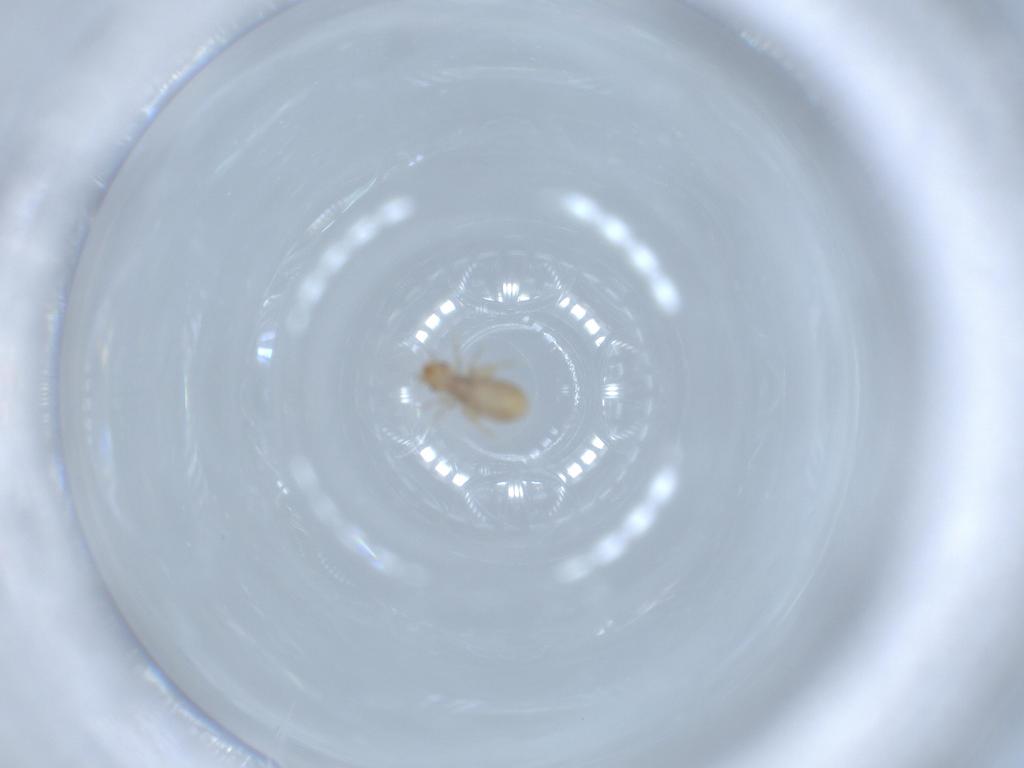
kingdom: Animalia
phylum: Arthropoda
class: Insecta
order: Psocodea
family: Liposcelididae
